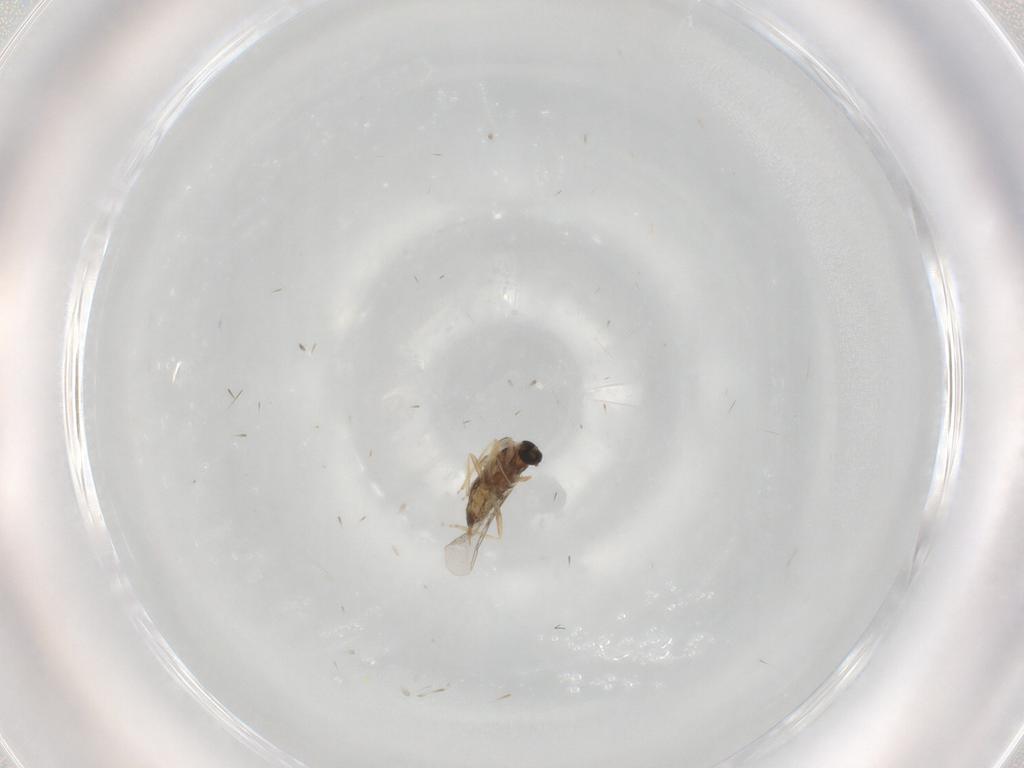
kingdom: Animalia
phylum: Arthropoda
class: Insecta
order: Diptera
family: Cecidomyiidae
